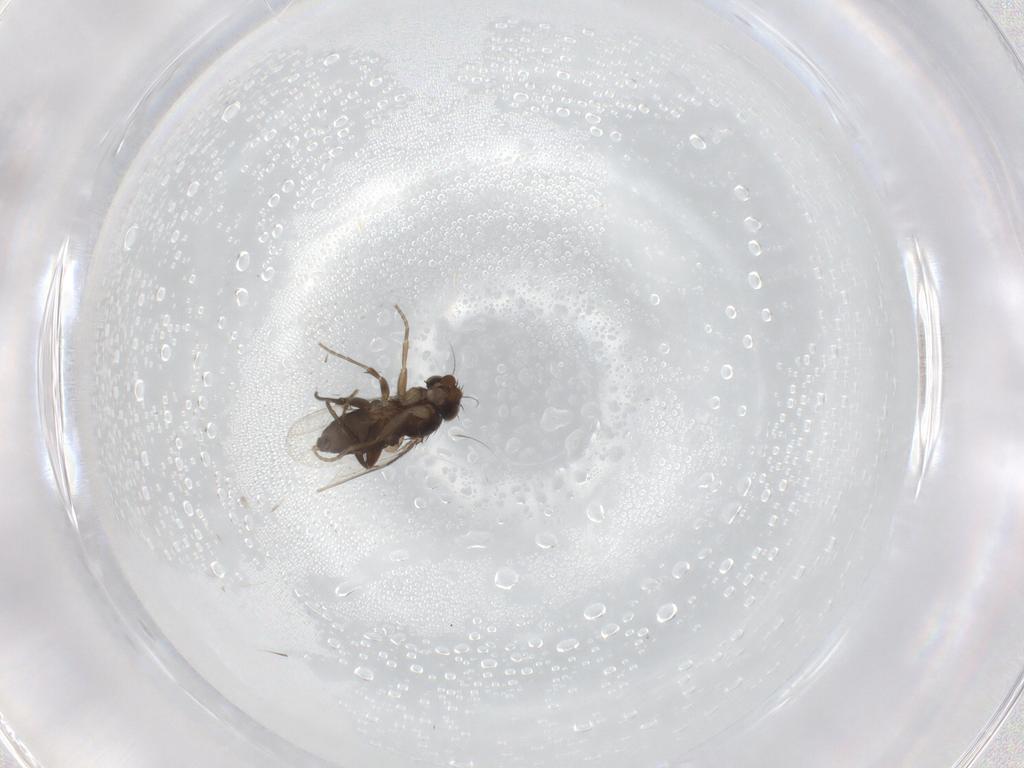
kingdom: Animalia
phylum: Arthropoda
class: Insecta
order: Diptera
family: Phoridae
